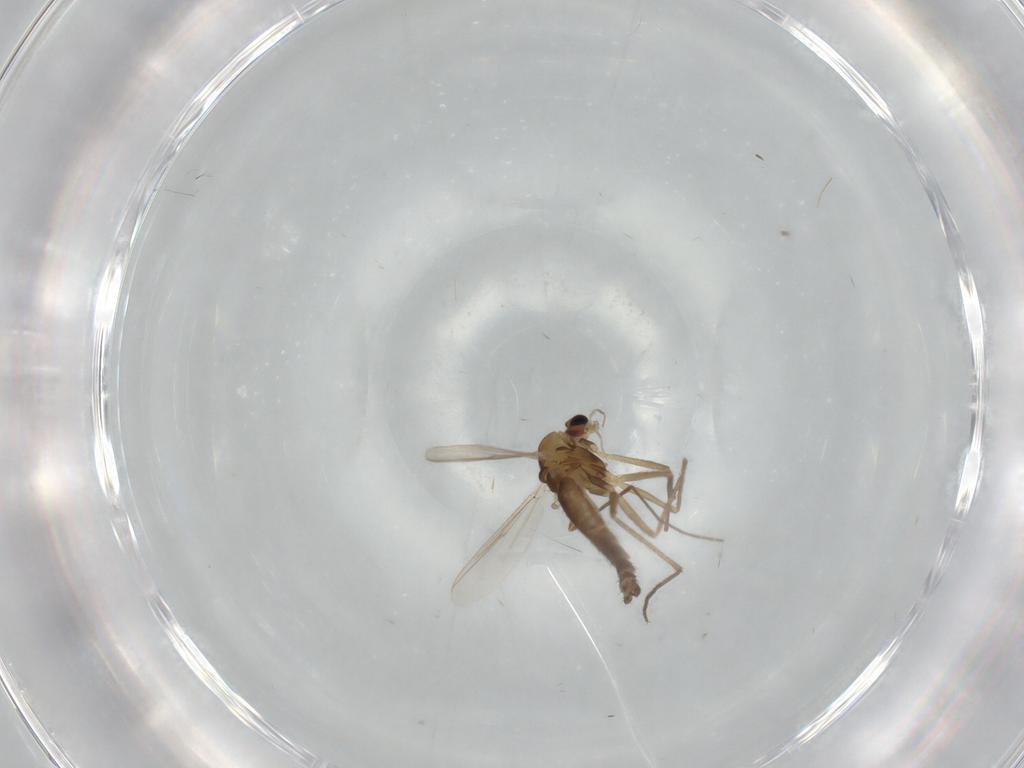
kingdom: Animalia
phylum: Arthropoda
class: Insecta
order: Diptera
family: Chironomidae
